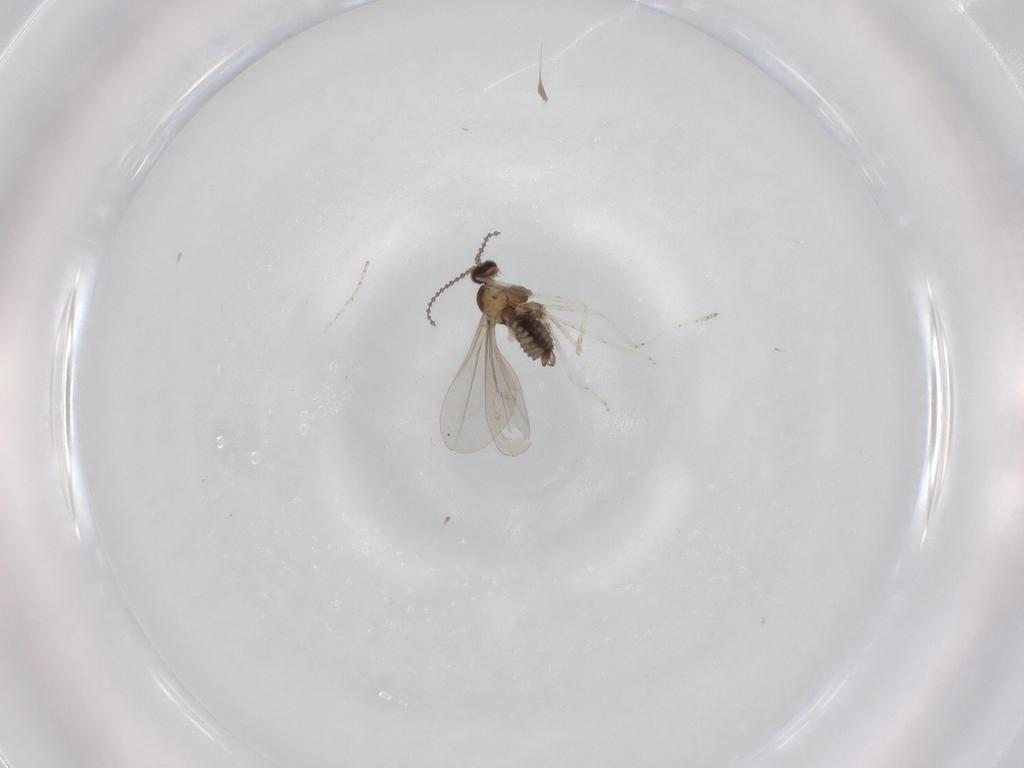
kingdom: Animalia
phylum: Arthropoda
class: Insecta
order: Diptera
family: Cecidomyiidae
